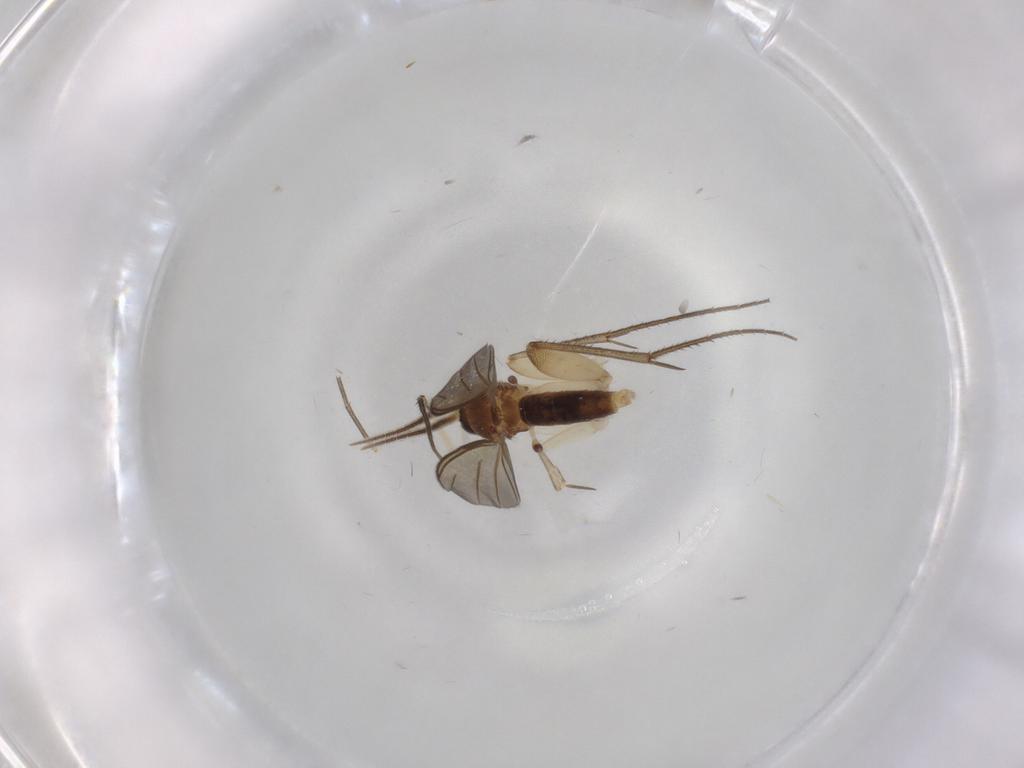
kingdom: Animalia
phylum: Arthropoda
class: Insecta
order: Diptera
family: Mycetophilidae
